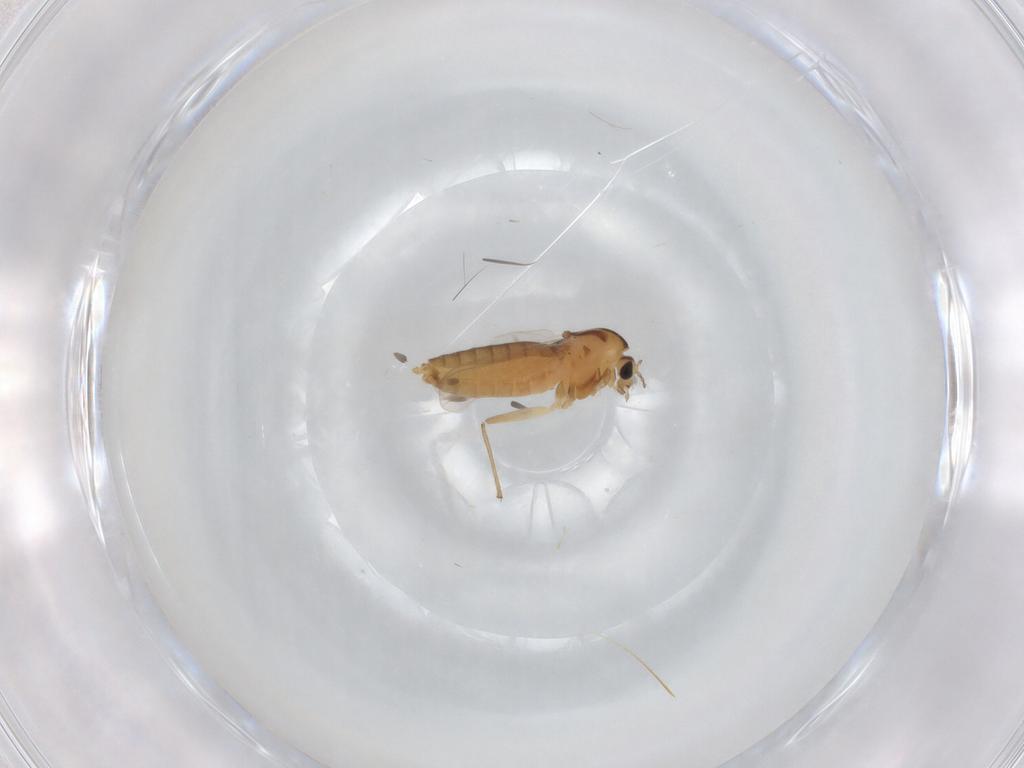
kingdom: Animalia
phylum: Arthropoda
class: Insecta
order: Diptera
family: Chironomidae
